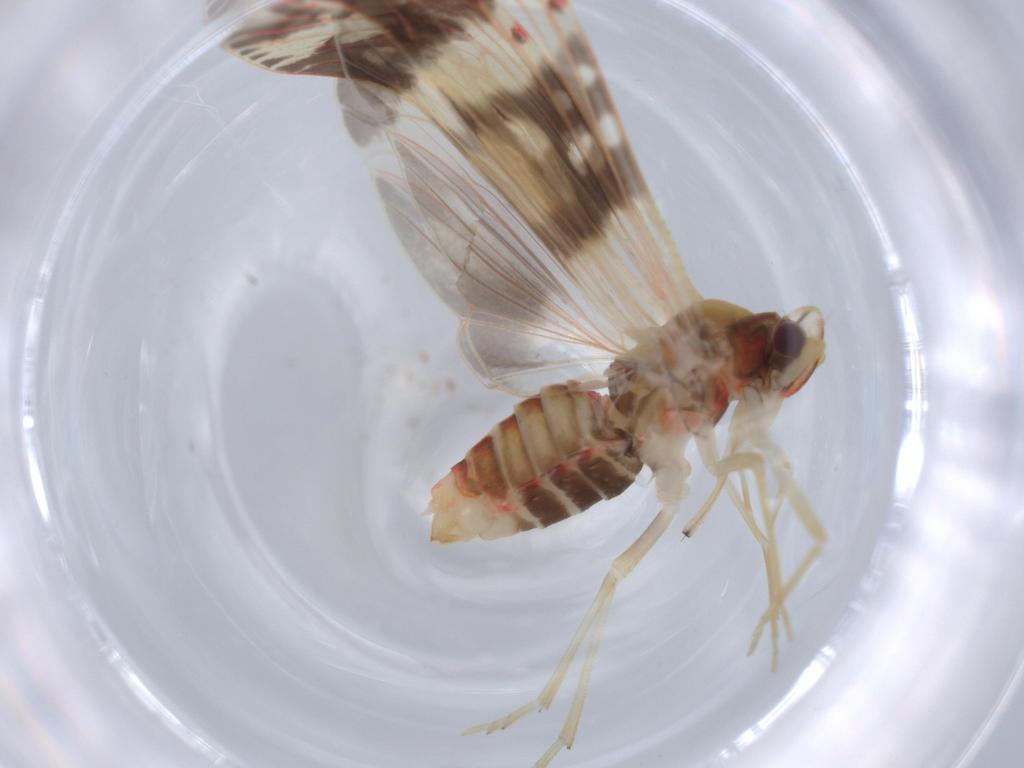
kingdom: Animalia
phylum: Arthropoda
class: Insecta
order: Hemiptera
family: Derbidae
